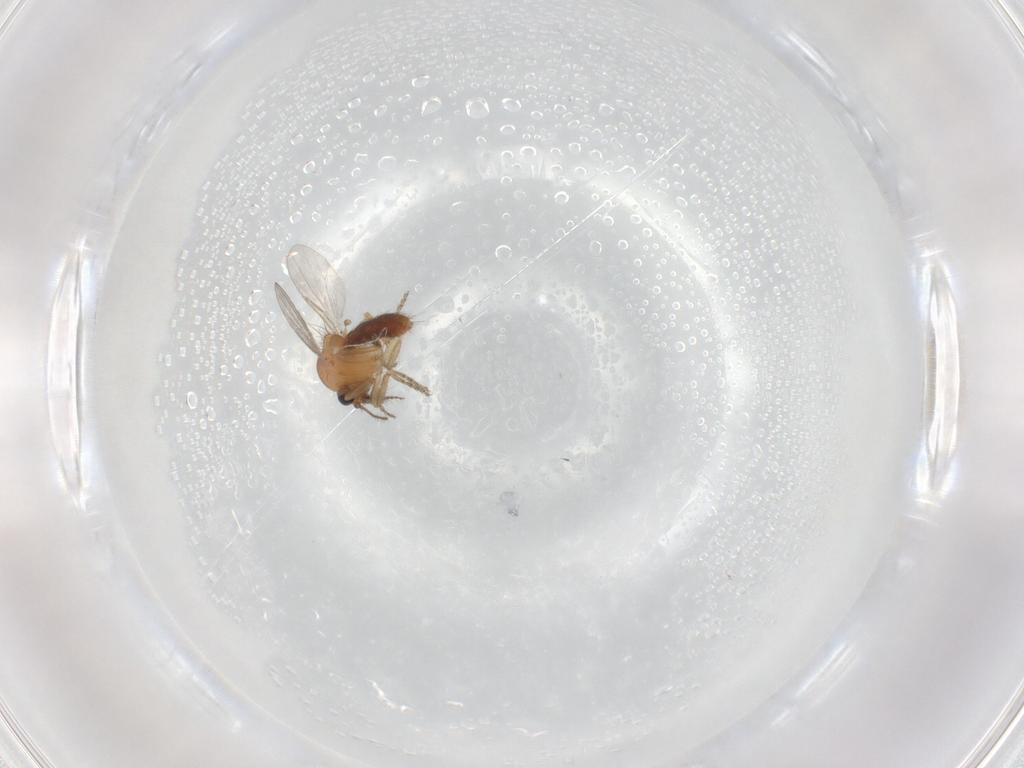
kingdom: Animalia
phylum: Arthropoda
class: Insecta
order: Diptera
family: Ceratopogonidae
